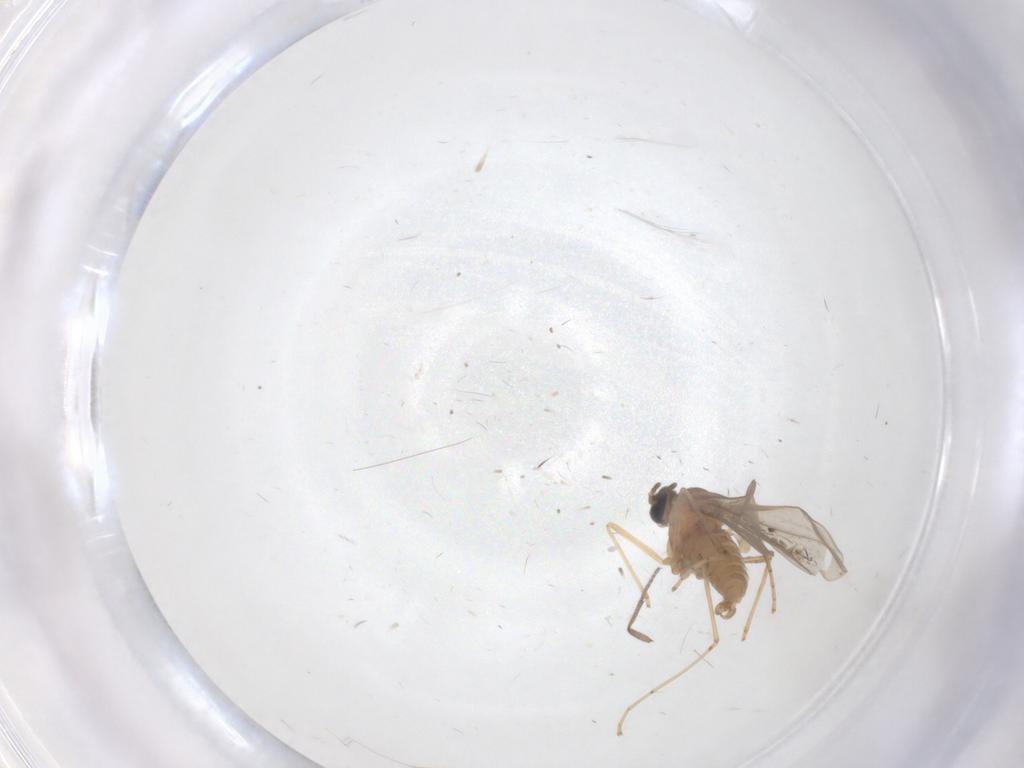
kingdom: Animalia
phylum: Arthropoda
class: Insecta
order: Diptera
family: Sciaridae
